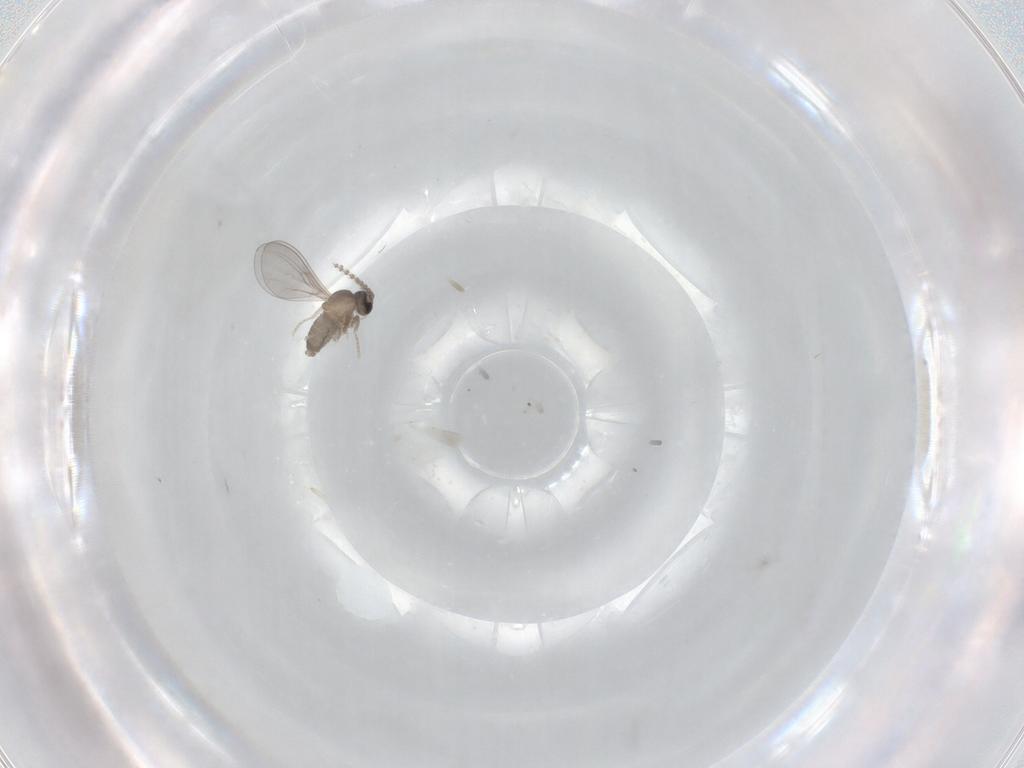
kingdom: Animalia
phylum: Arthropoda
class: Insecta
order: Diptera
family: Cecidomyiidae
